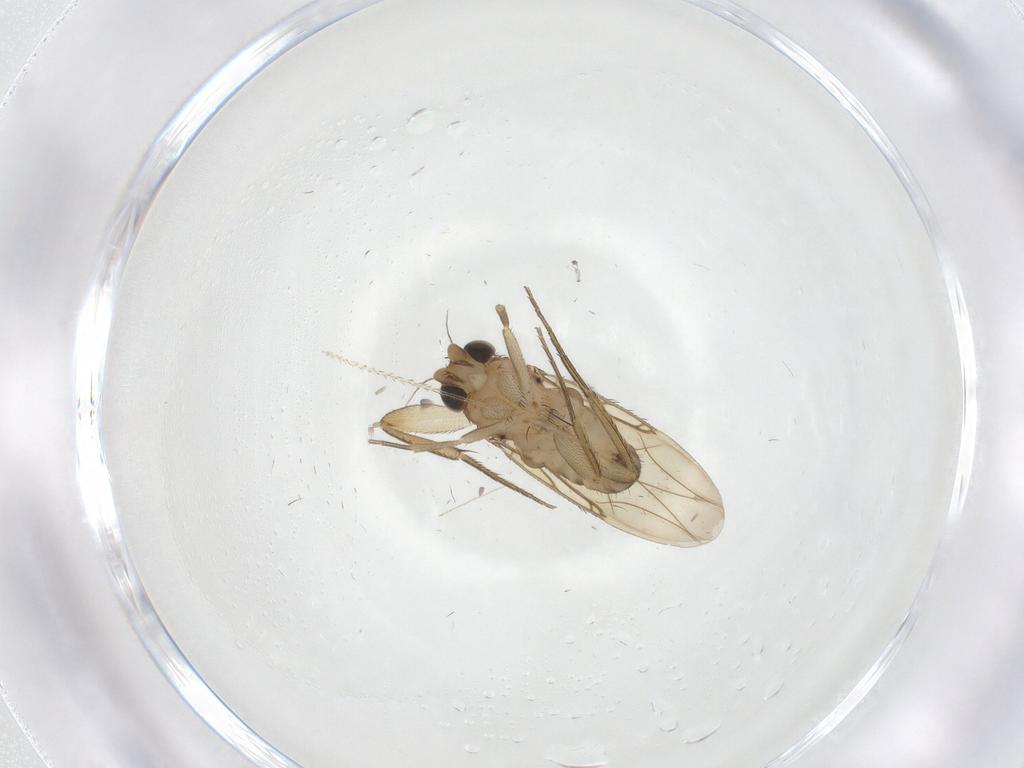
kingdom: Animalia
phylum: Arthropoda
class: Insecta
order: Diptera
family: Phoridae
